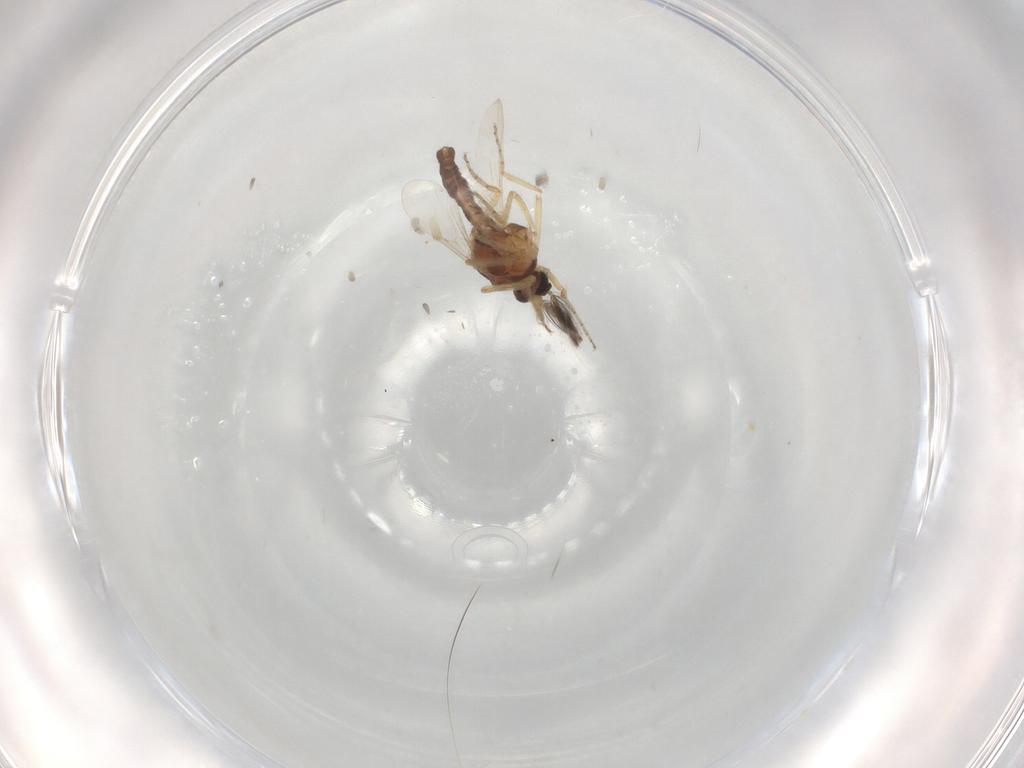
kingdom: Animalia
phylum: Arthropoda
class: Insecta
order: Diptera
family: Ceratopogonidae
